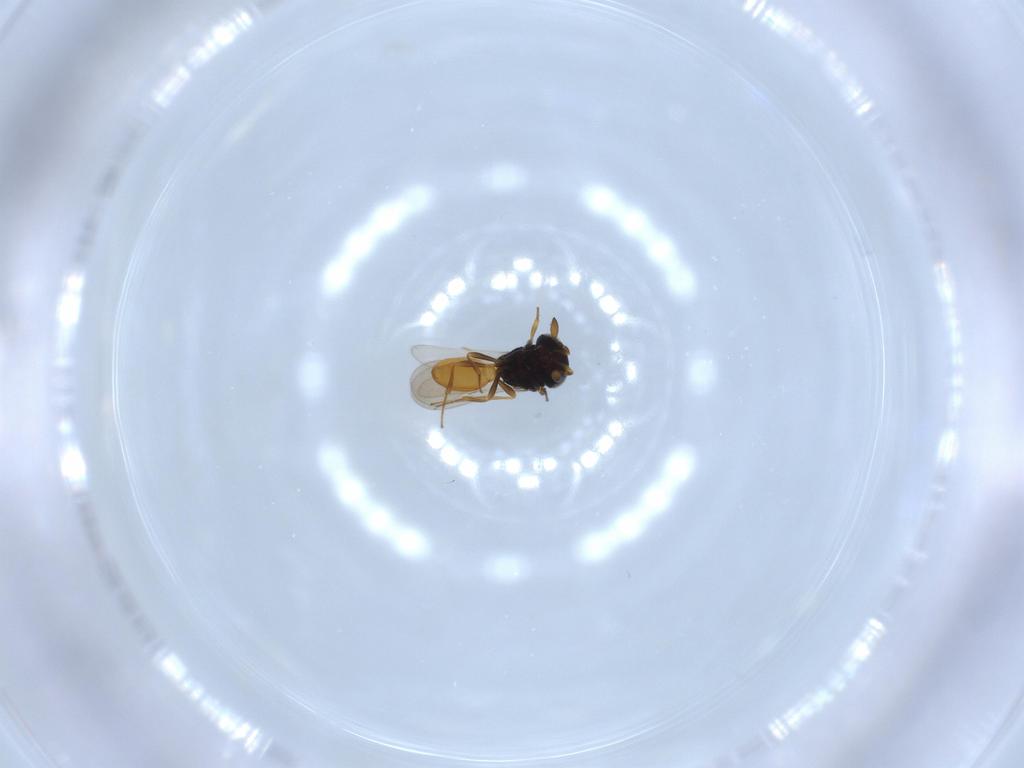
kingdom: Animalia
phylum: Arthropoda
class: Insecta
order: Hymenoptera
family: Scelionidae
